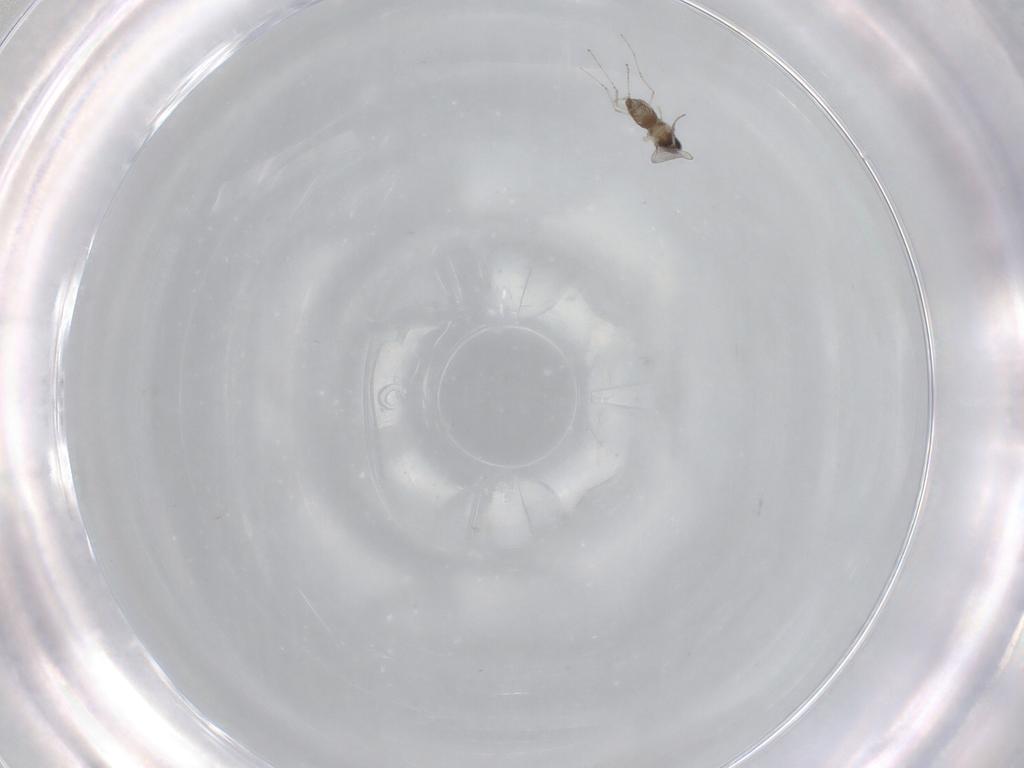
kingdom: Animalia
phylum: Arthropoda
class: Insecta
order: Diptera
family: Cecidomyiidae
